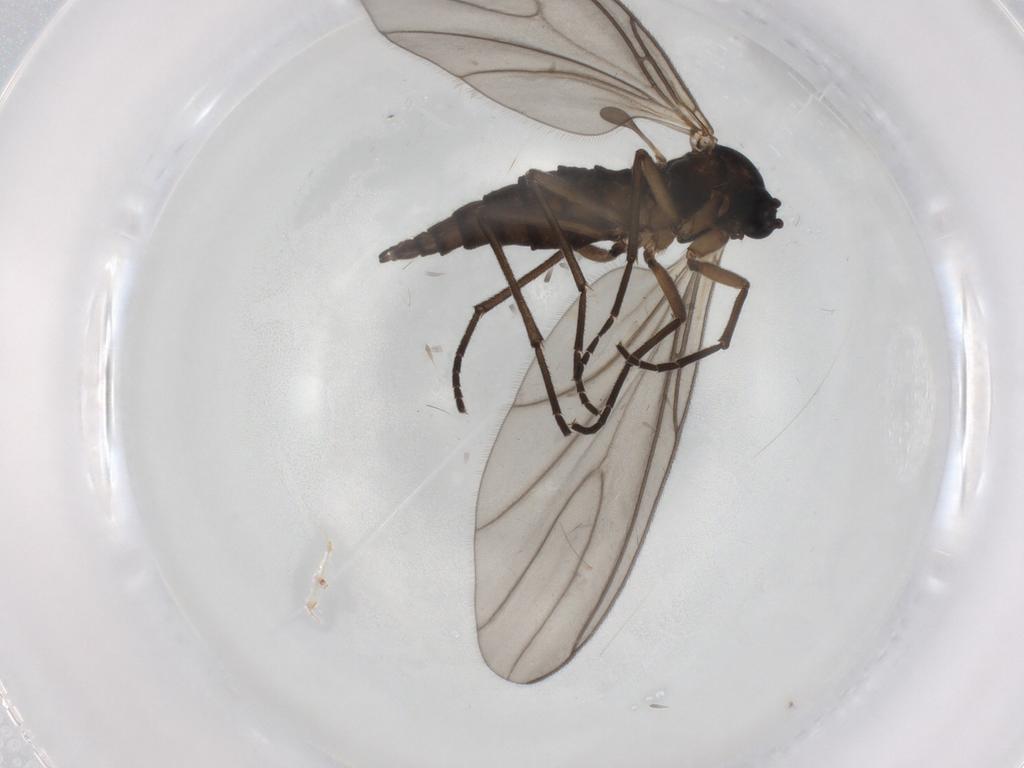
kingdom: Animalia
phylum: Arthropoda
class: Insecta
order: Diptera
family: Sciaridae
